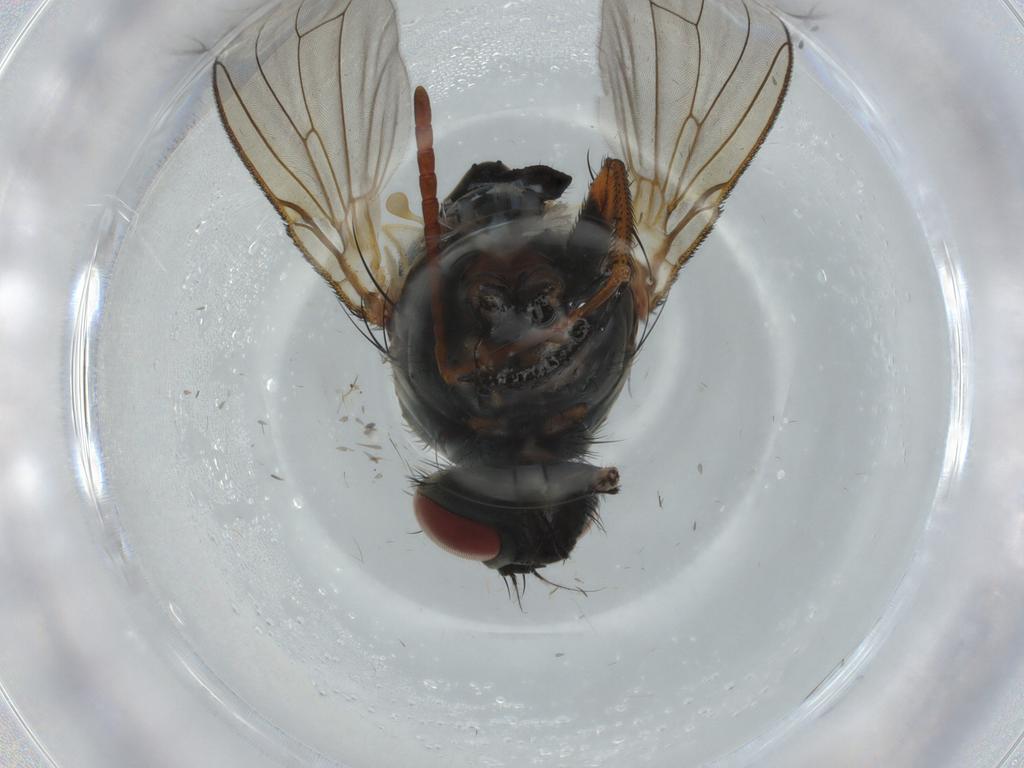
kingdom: Animalia
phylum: Arthropoda
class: Insecta
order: Diptera
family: Muscidae
